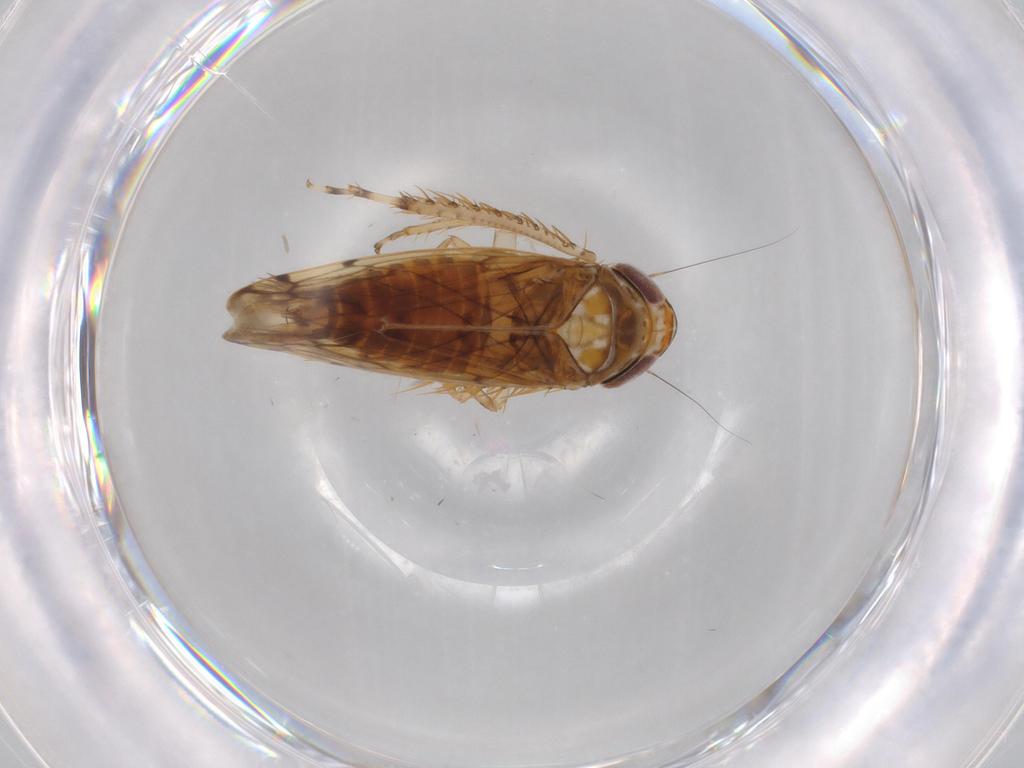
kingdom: Animalia
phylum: Arthropoda
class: Insecta
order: Hemiptera
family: Cicadellidae
